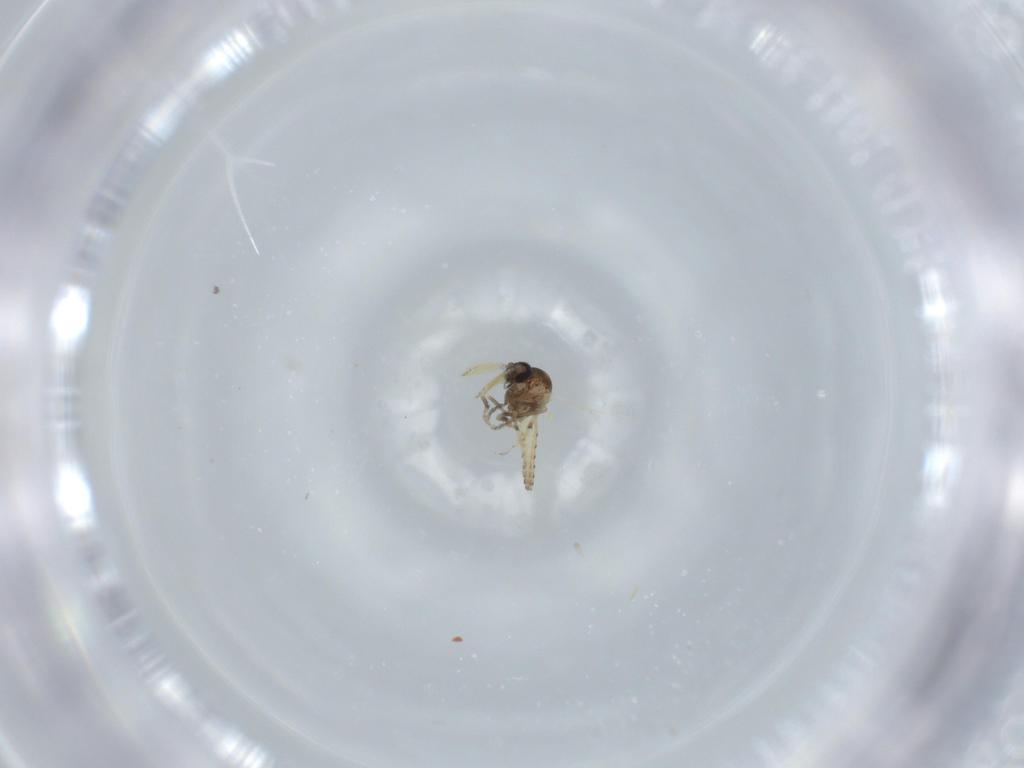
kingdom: Animalia
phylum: Arthropoda
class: Insecta
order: Diptera
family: Ceratopogonidae
